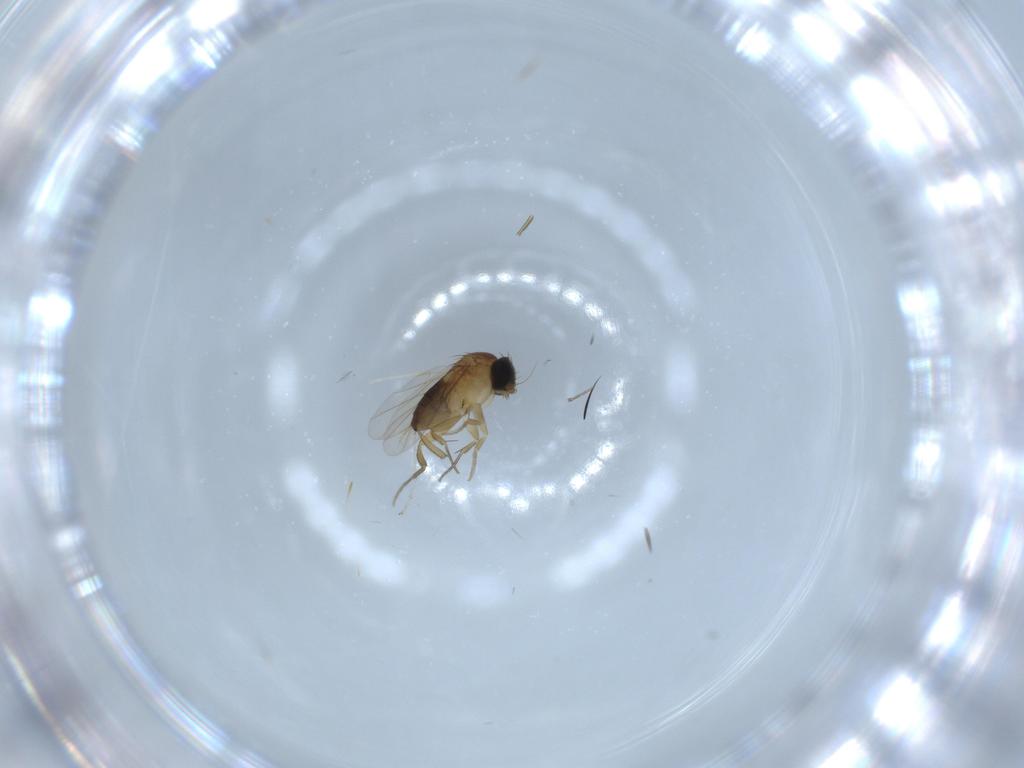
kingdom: Animalia
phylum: Arthropoda
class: Insecta
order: Diptera
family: Phoridae
